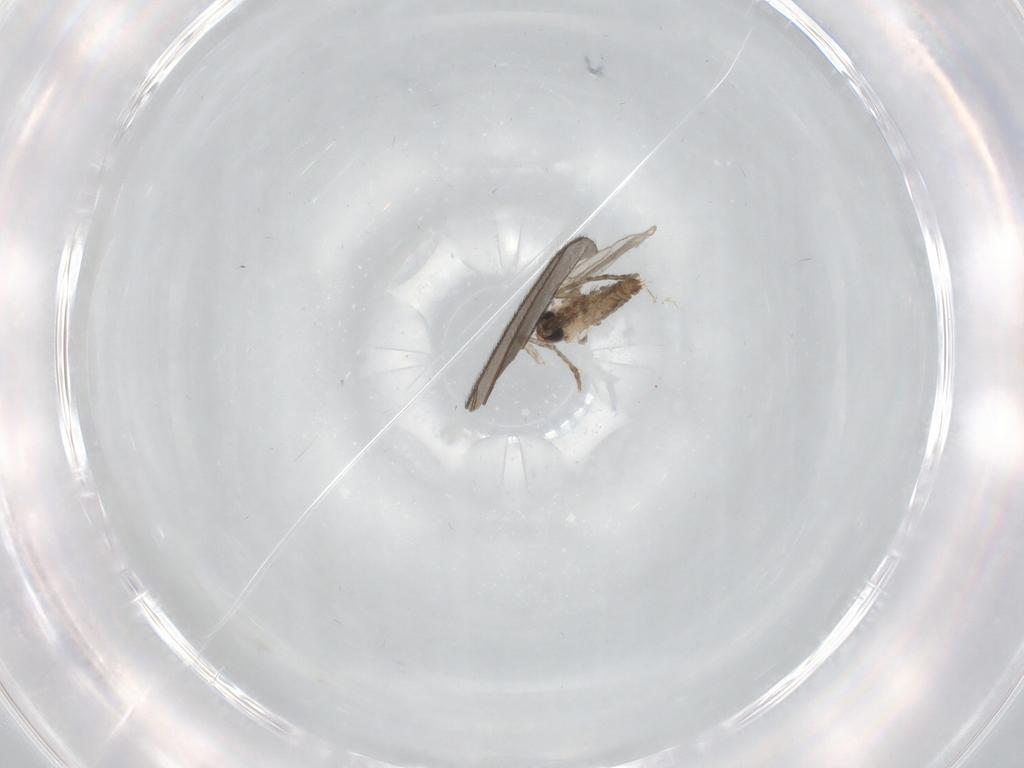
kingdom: Animalia
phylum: Arthropoda
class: Insecta
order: Diptera
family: Psychodidae
